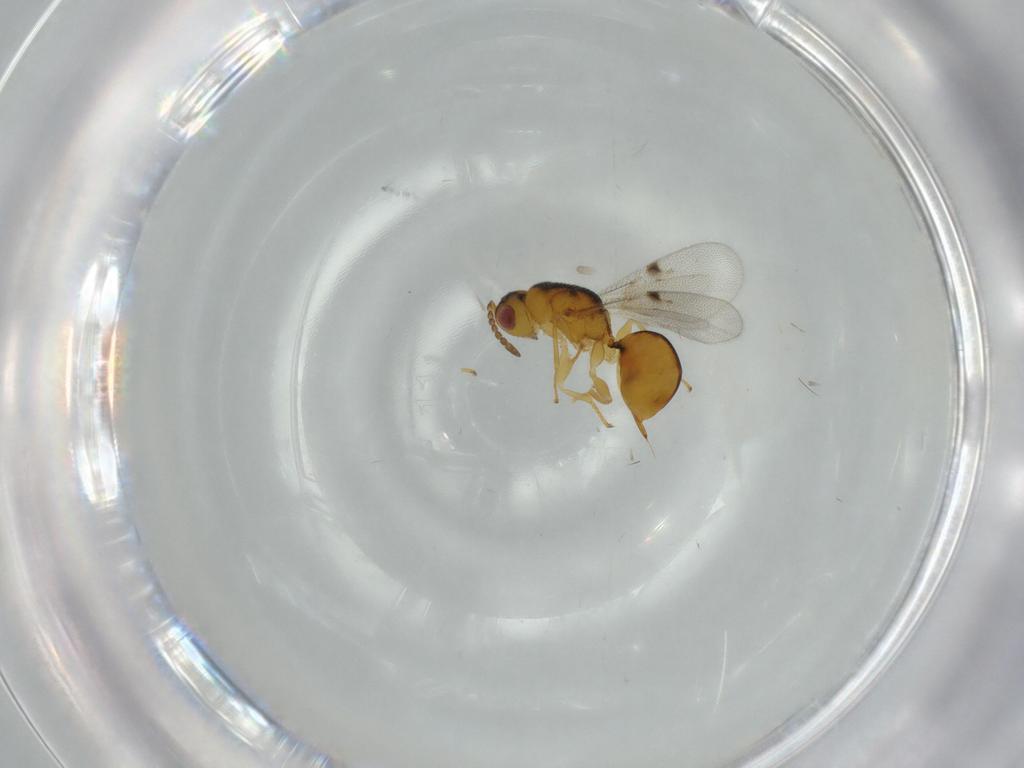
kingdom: Animalia
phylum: Arthropoda
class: Insecta
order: Hymenoptera
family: Eurytomidae
